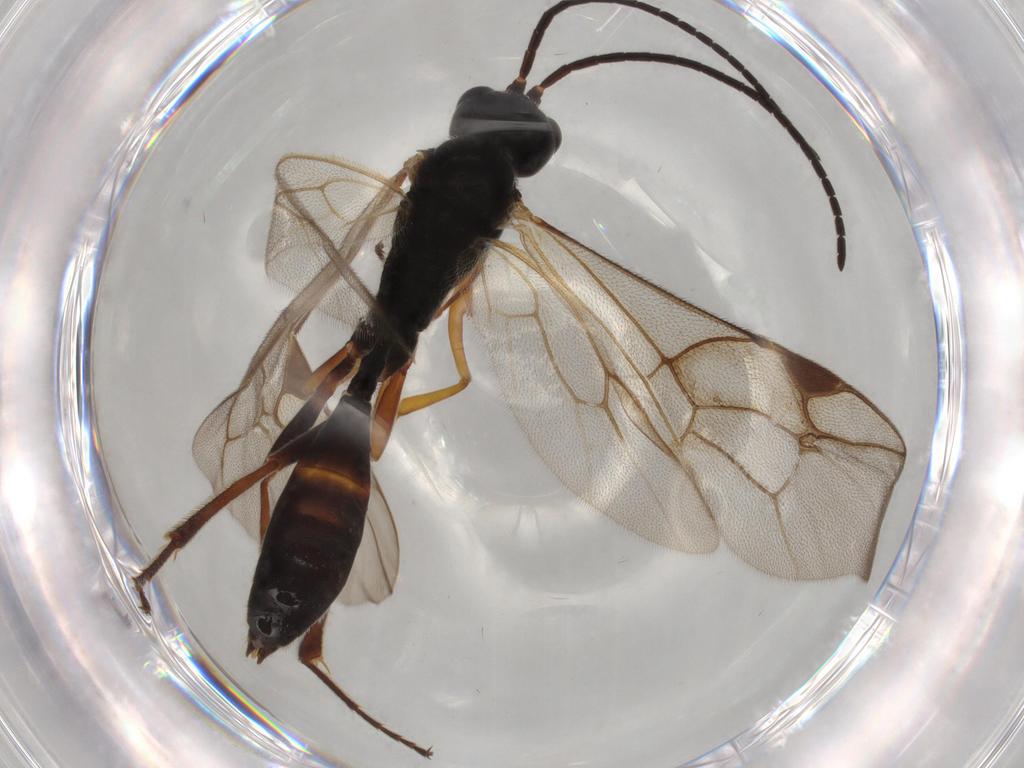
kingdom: Animalia
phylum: Arthropoda
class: Insecta
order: Hymenoptera
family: Ichneumonidae
